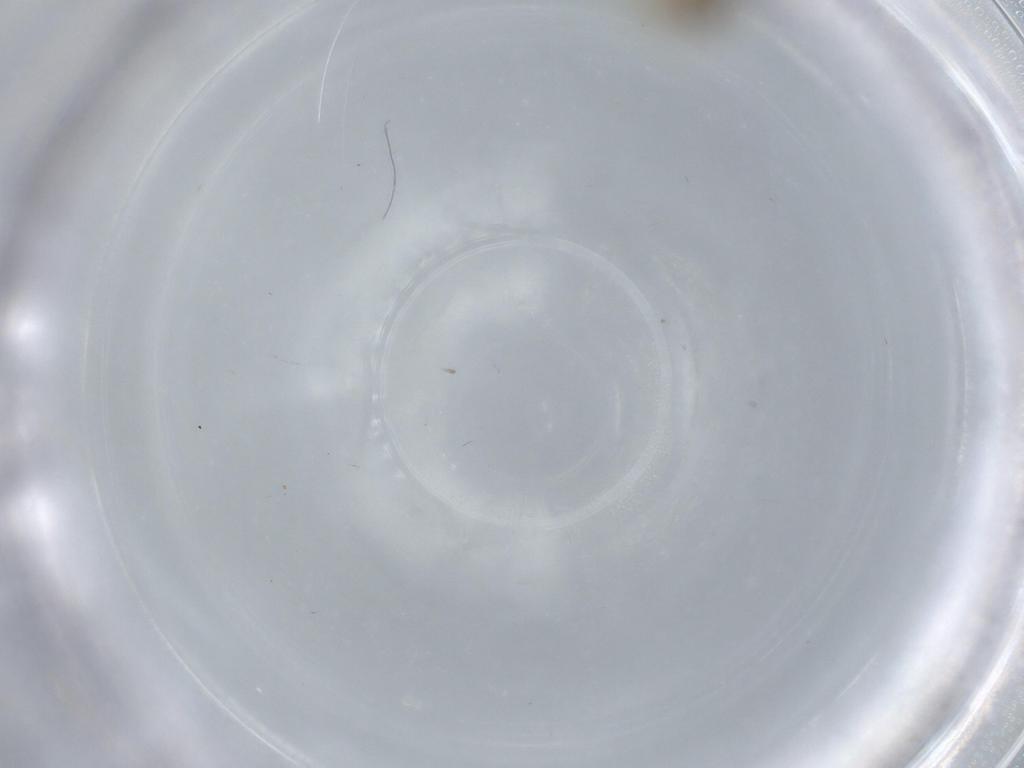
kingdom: Animalia
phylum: Arthropoda
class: Insecta
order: Psocodea
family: Lachesillidae
